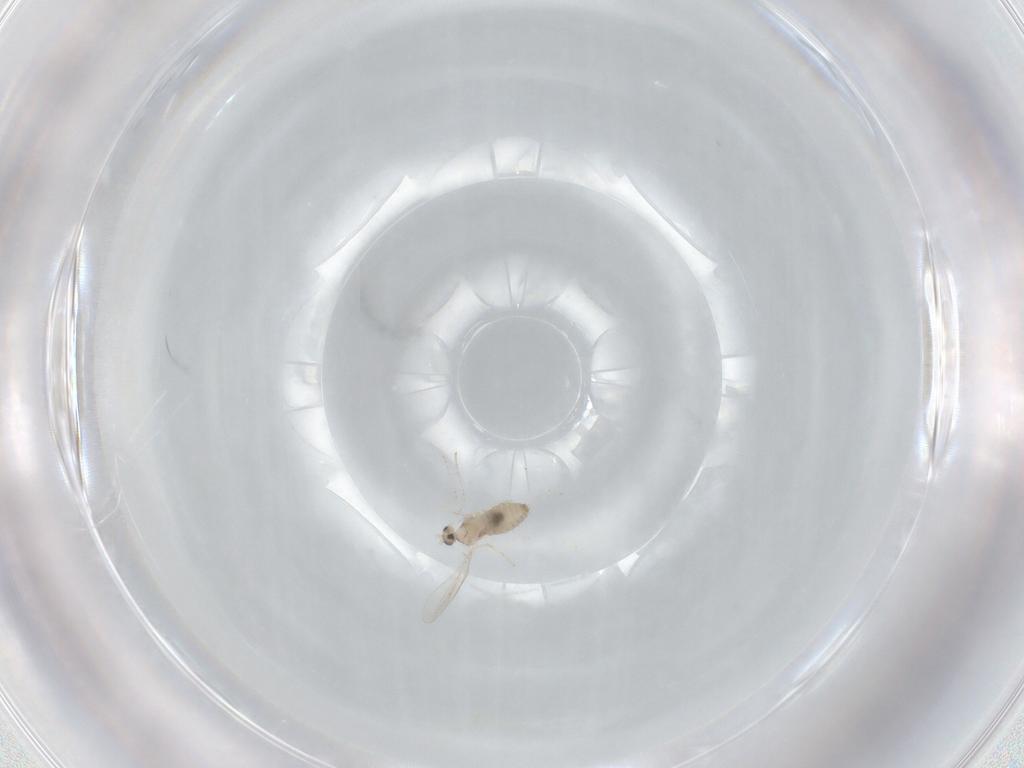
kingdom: Animalia
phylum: Arthropoda
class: Insecta
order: Diptera
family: Cecidomyiidae
